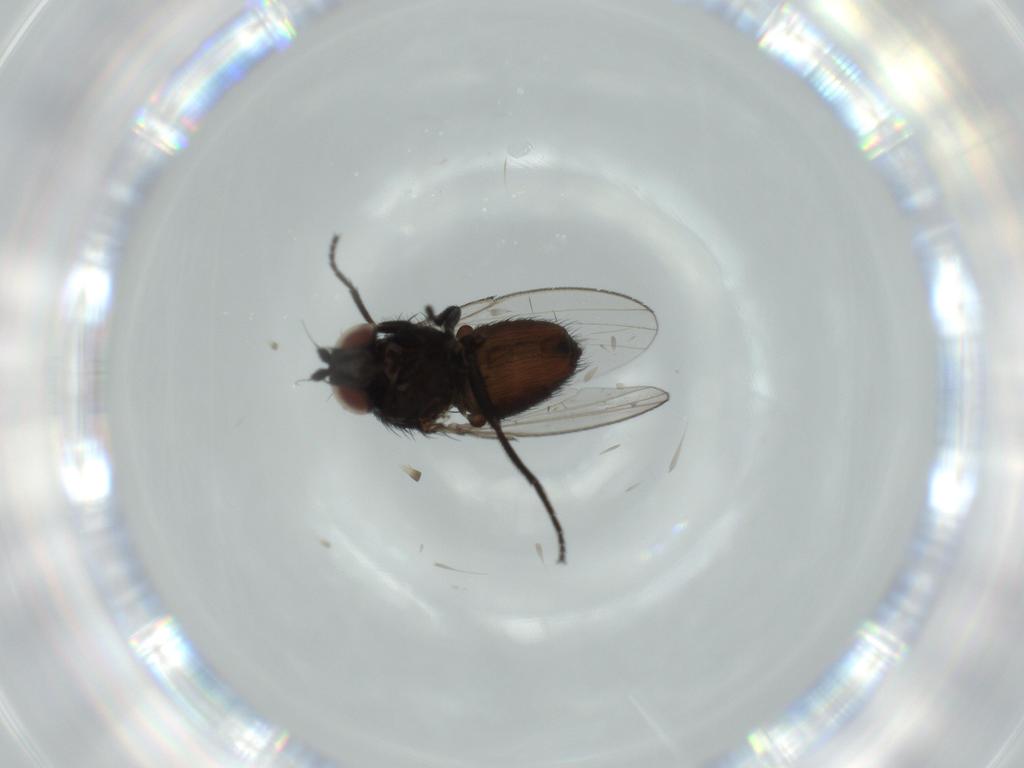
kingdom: Animalia
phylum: Arthropoda
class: Insecta
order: Diptera
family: Milichiidae
